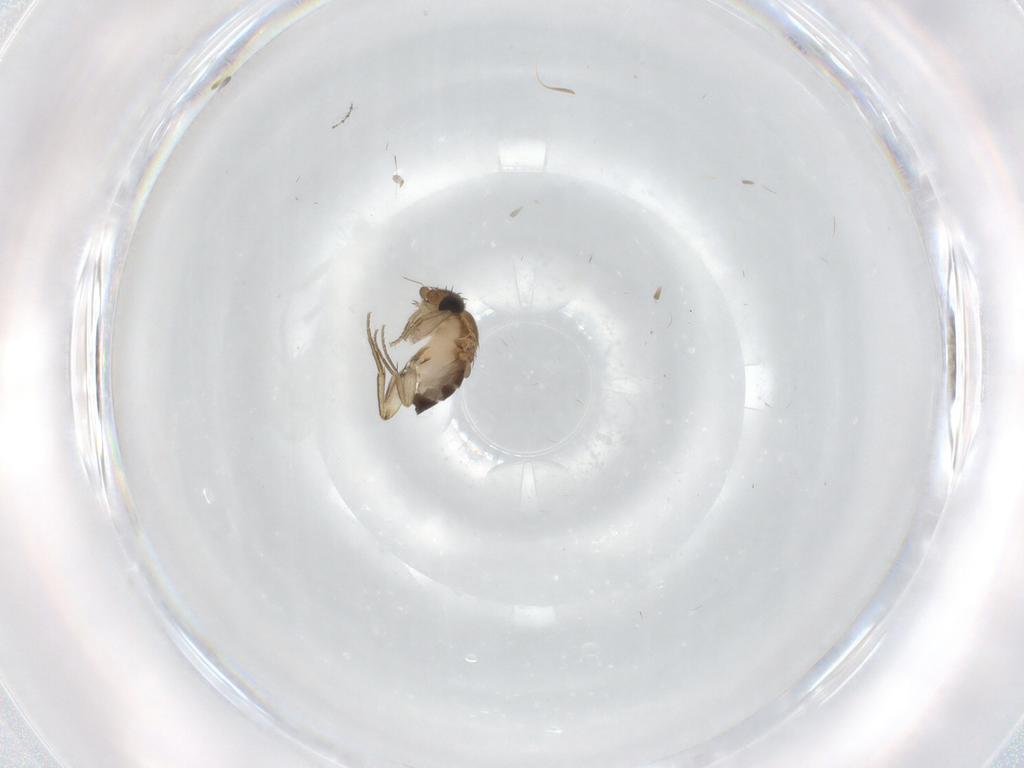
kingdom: Animalia
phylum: Arthropoda
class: Insecta
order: Diptera
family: Phoridae
